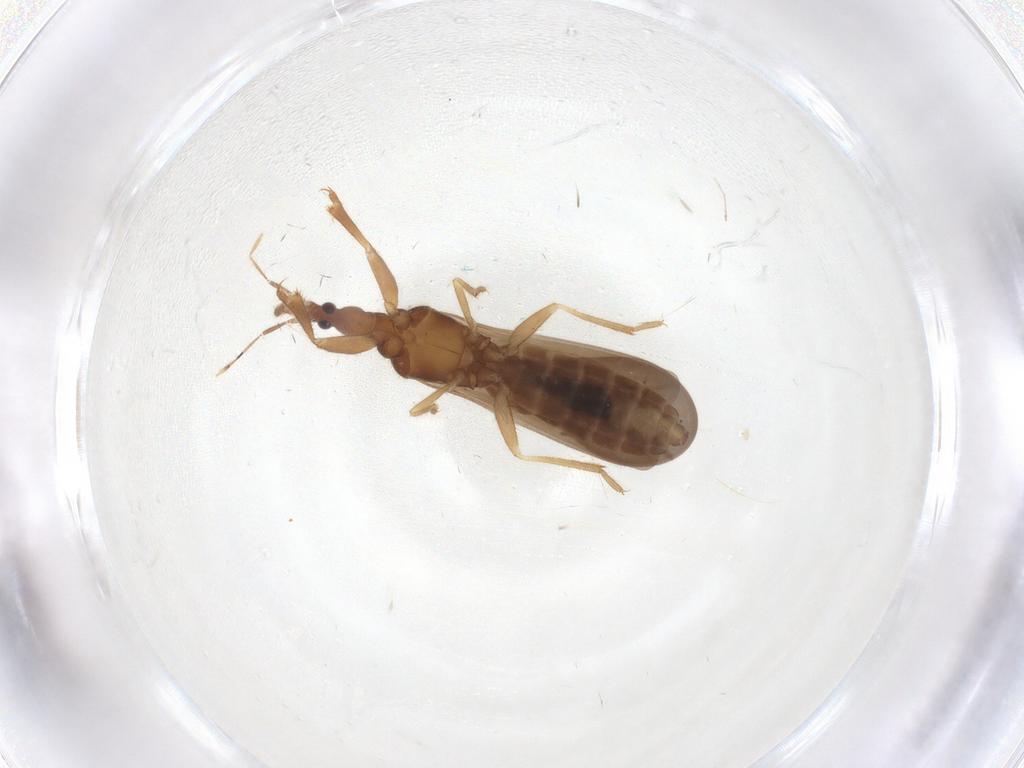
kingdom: Animalia
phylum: Arthropoda
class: Insecta
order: Hemiptera
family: Enicocephalidae
